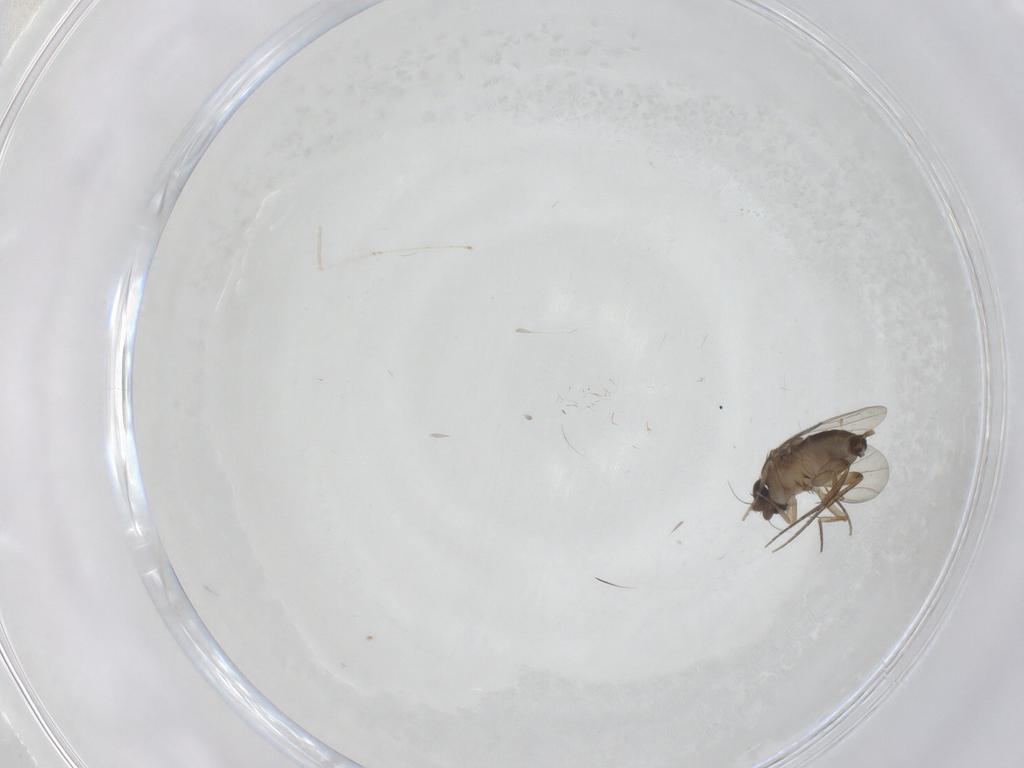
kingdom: Animalia
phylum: Arthropoda
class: Insecta
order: Diptera
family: Phoridae
